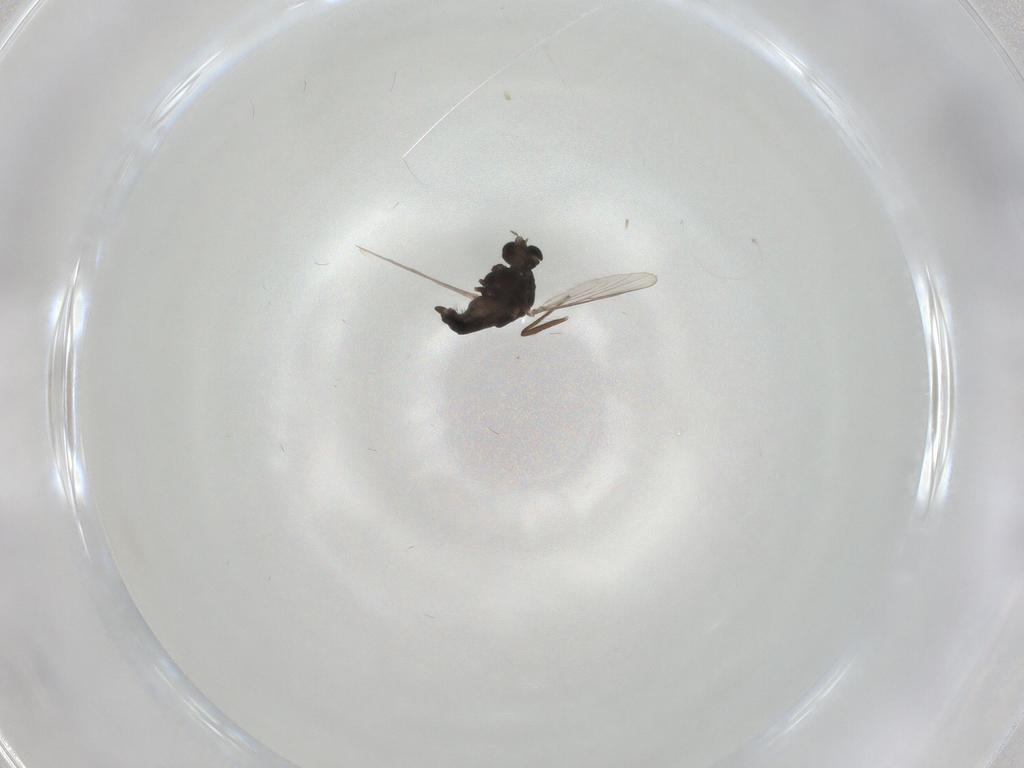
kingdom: Animalia
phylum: Arthropoda
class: Insecta
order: Diptera
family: Chironomidae
